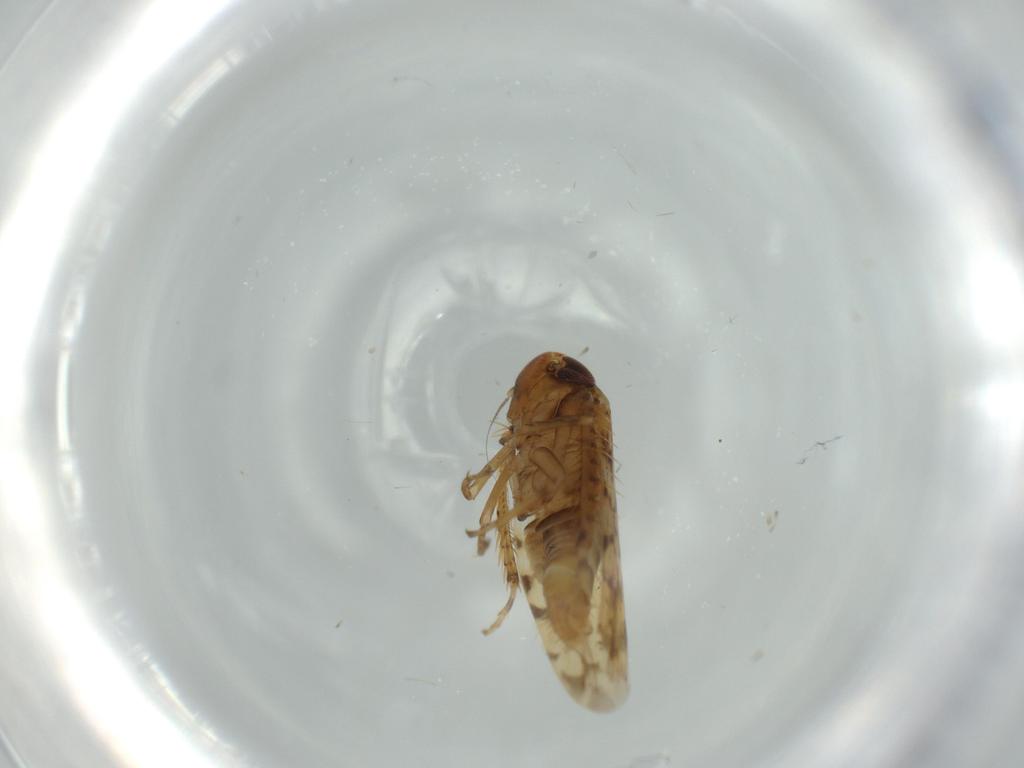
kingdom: Animalia
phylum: Arthropoda
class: Insecta
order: Hemiptera
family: Cicadellidae
